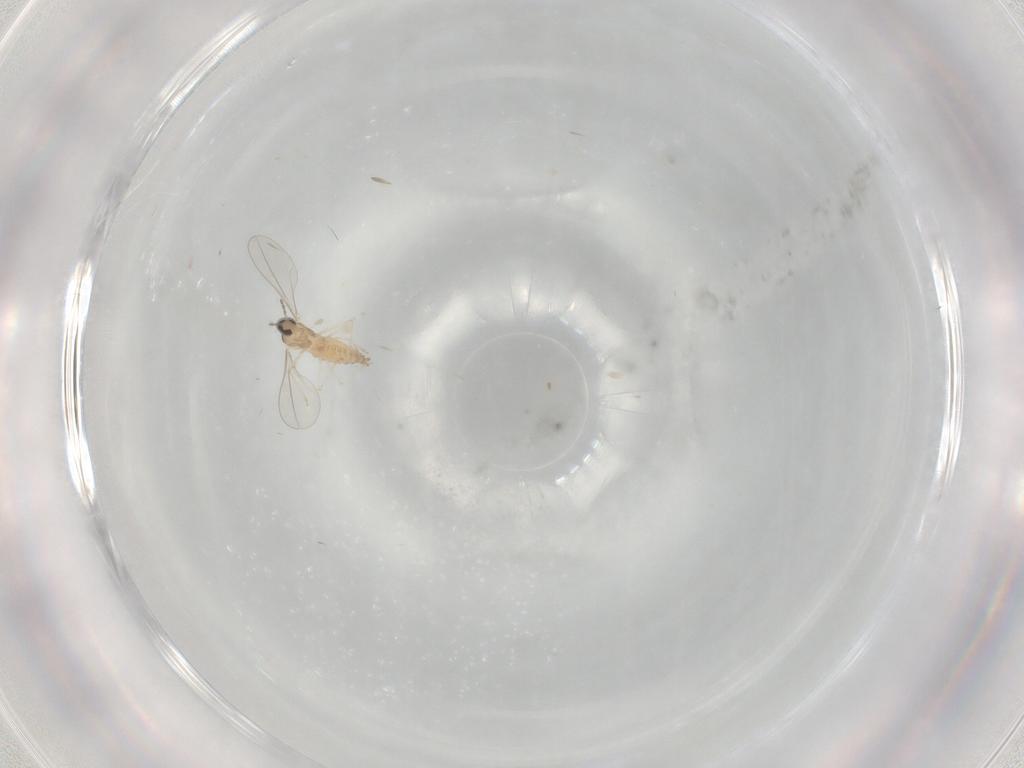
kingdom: Animalia
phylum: Arthropoda
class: Insecta
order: Diptera
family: Cecidomyiidae
